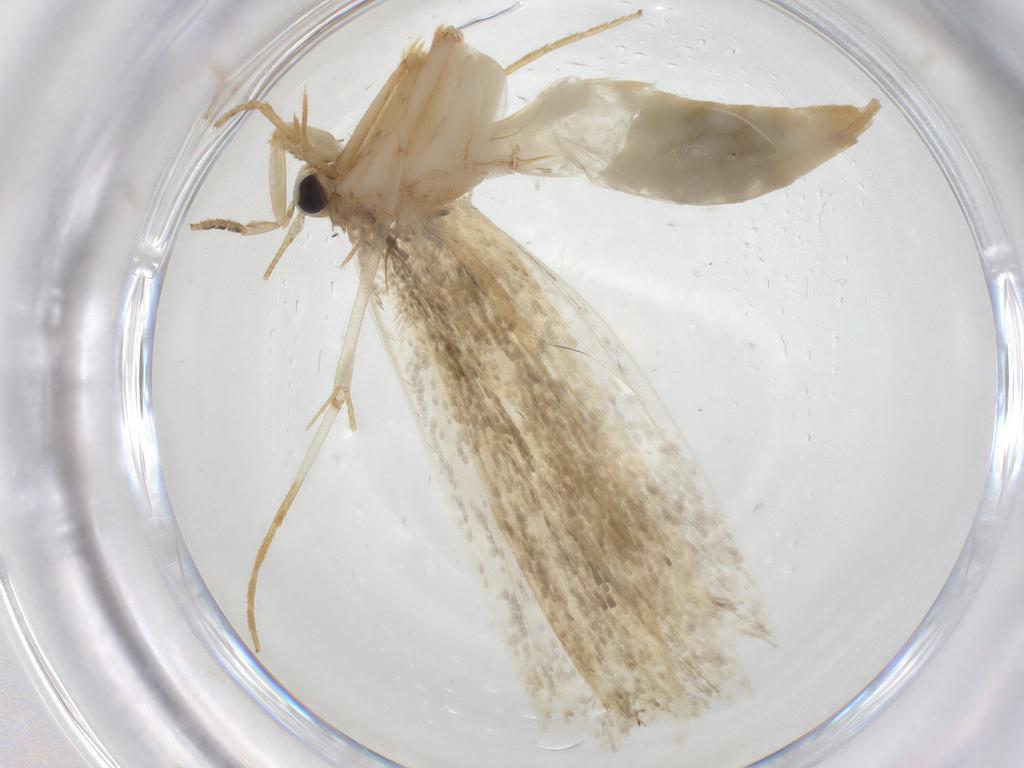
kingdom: Animalia
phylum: Arthropoda
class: Insecta
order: Lepidoptera
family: Tineidae
